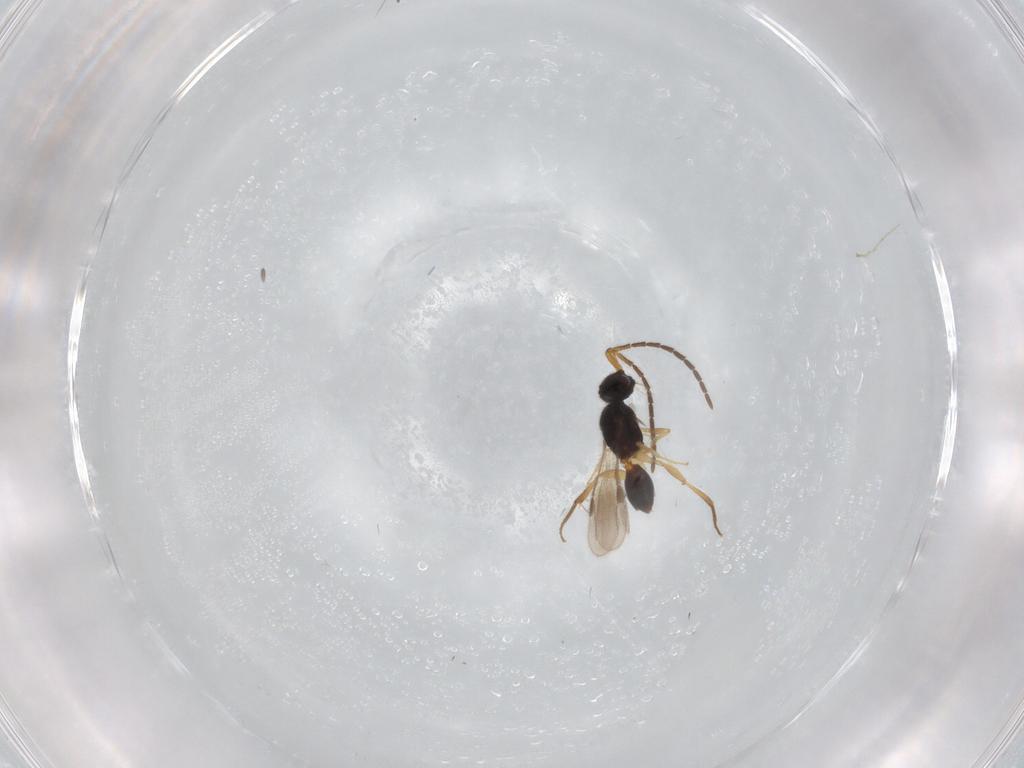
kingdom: Animalia
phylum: Arthropoda
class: Insecta
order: Hymenoptera
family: Megaspilidae
